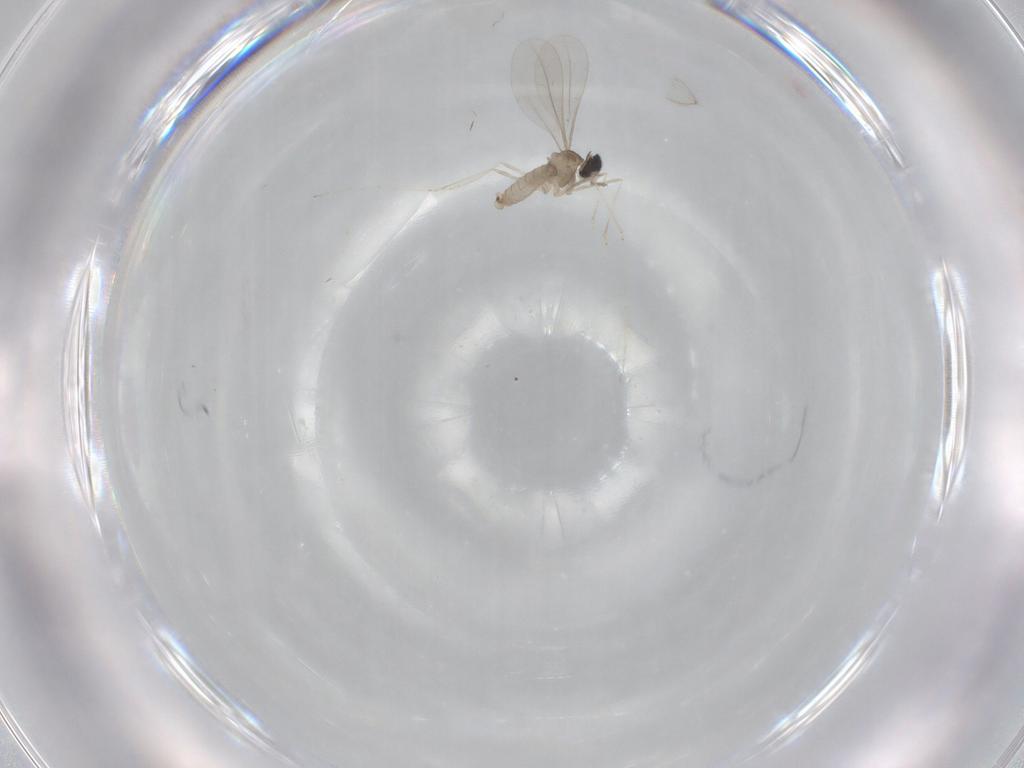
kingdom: Animalia
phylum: Arthropoda
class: Insecta
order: Diptera
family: Cecidomyiidae
